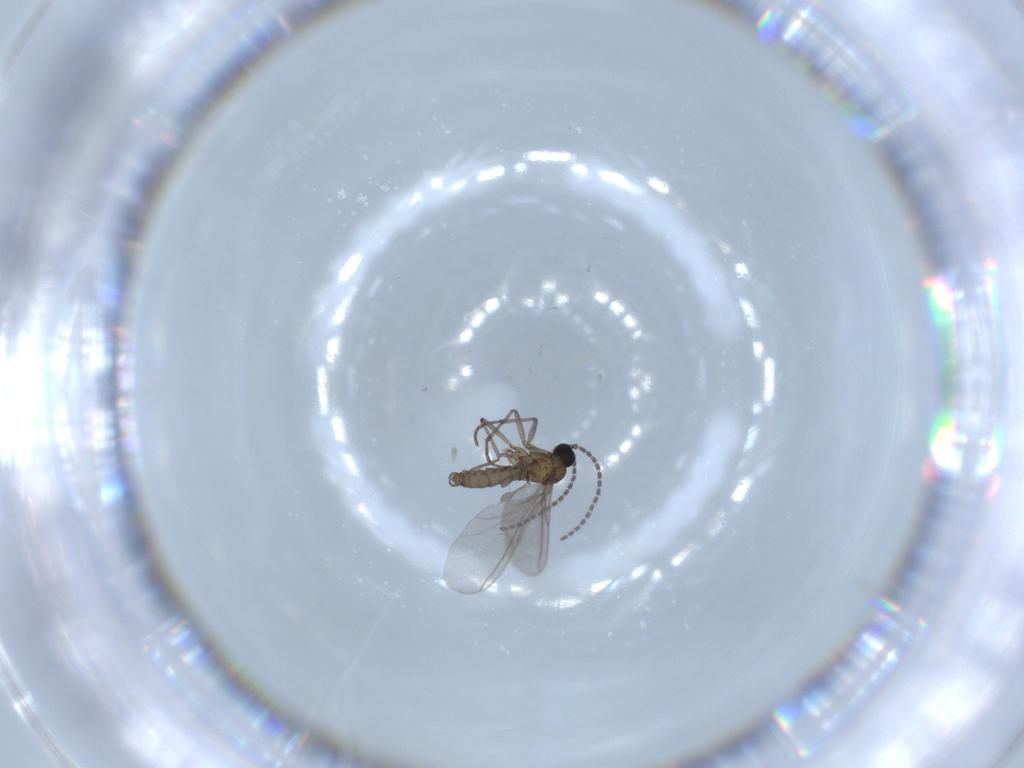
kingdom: Animalia
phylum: Arthropoda
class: Insecta
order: Diptera
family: Sciaridae
